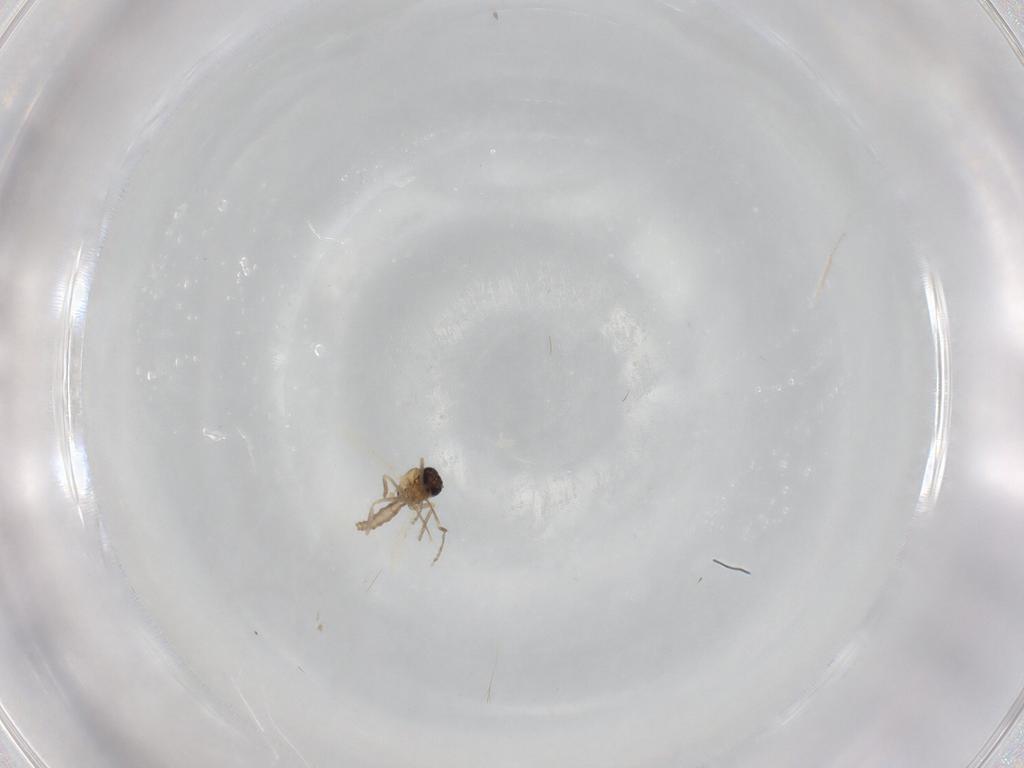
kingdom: Animalia
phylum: Arthropoda
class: Insecta
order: Diptera
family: Ceratopogonidae
